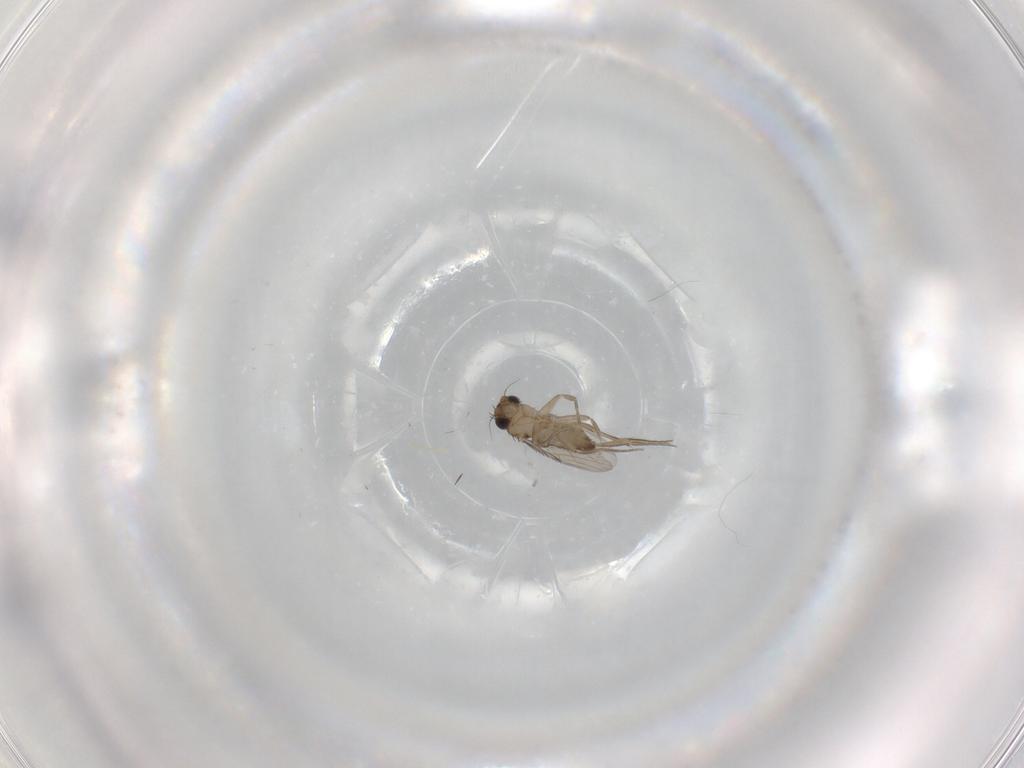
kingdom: Animalia
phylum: Arthropoda
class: Insecta
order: Diptera
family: Phoridae
